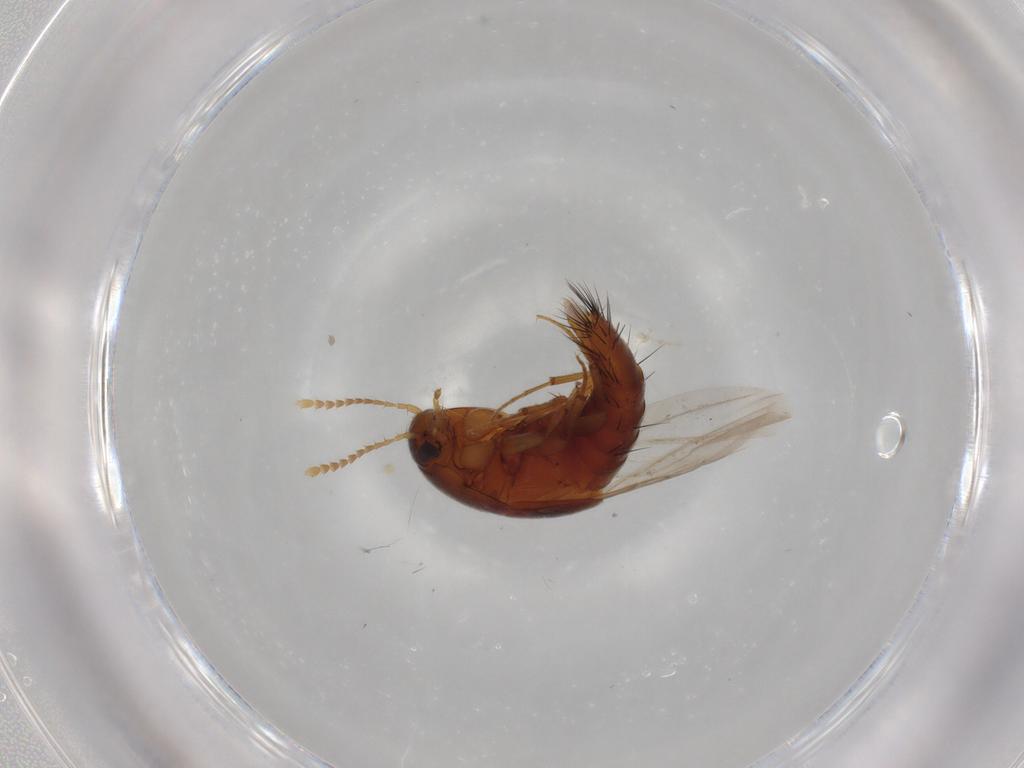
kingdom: Animalia
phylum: Arthropoda
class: Insecta
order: Coleoptera
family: Staphylinidae
